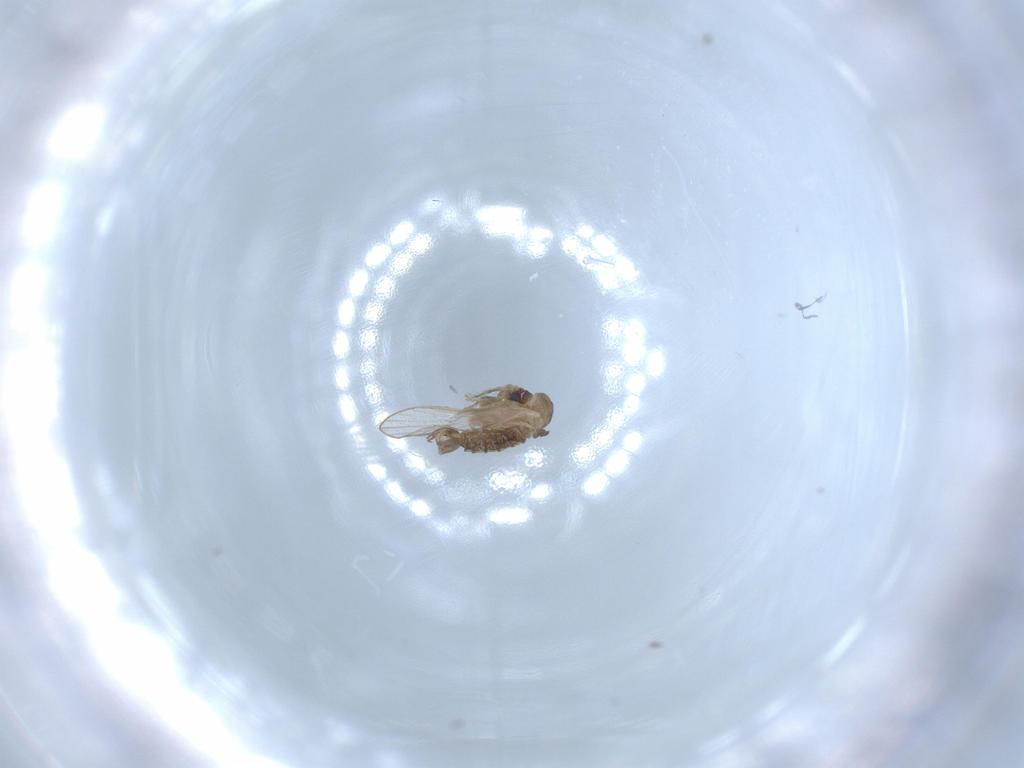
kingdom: Animalia
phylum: Arthropoda
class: Insecta
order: Diptera
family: Psychodidae
